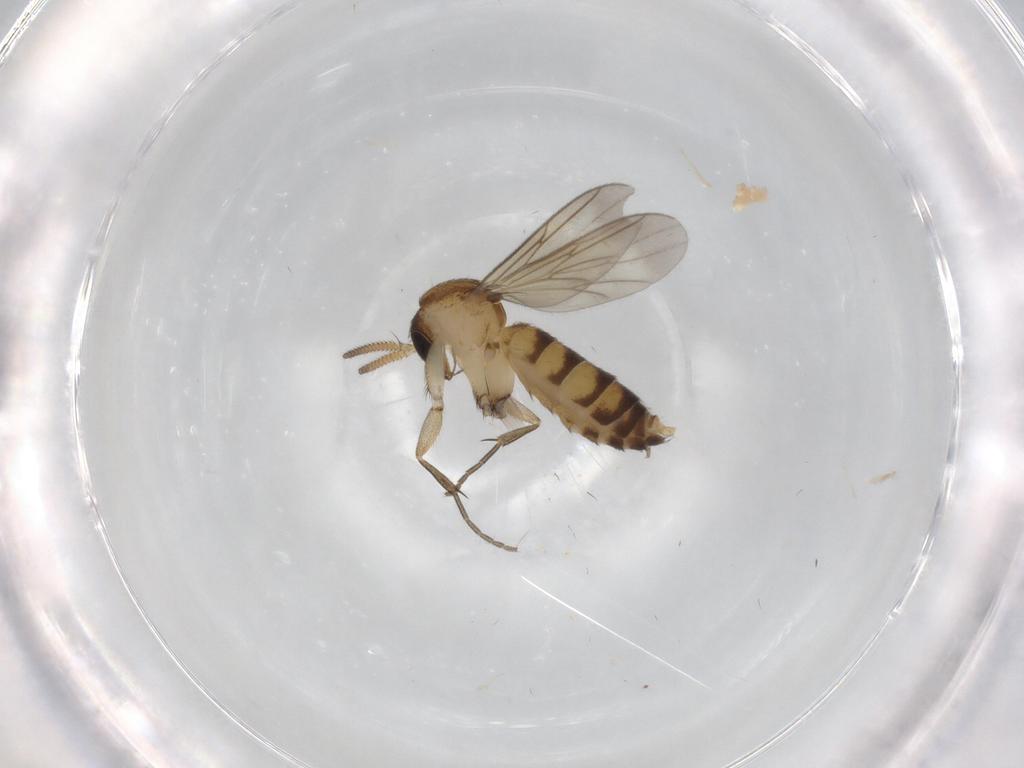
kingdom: Animalia
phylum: Arthropoda
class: Insecta
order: Diptera
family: Mycetophilidae
